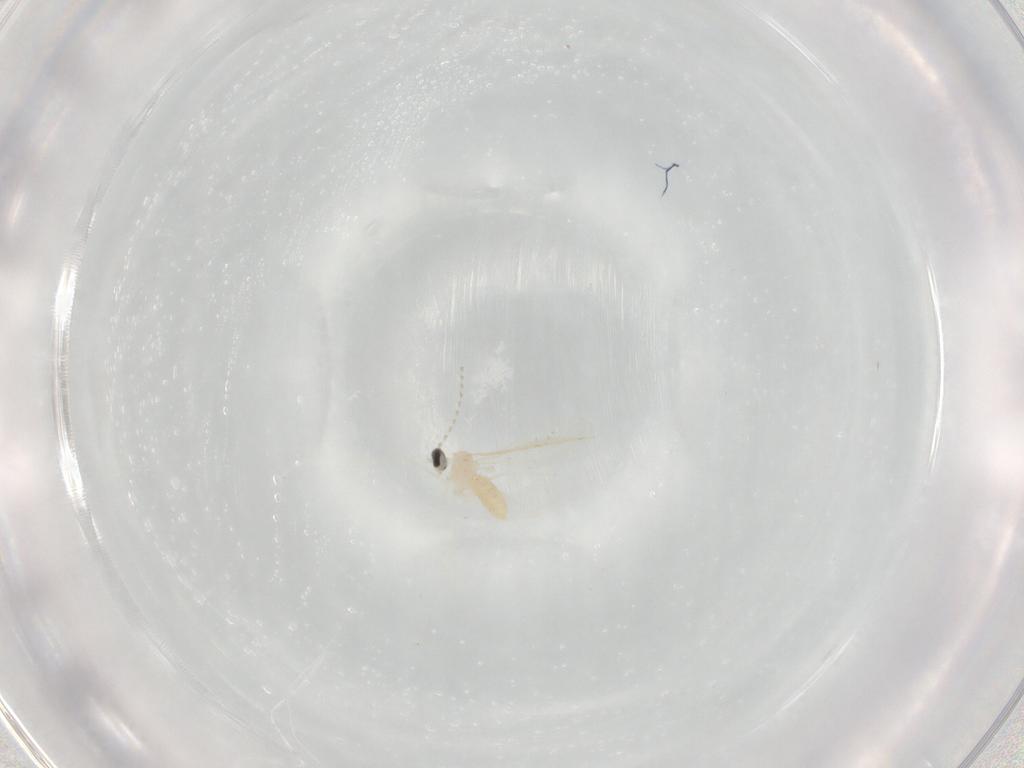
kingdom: Animalia
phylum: Arthropoda
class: Insecta
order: Diptera
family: Cecidomyiidae
